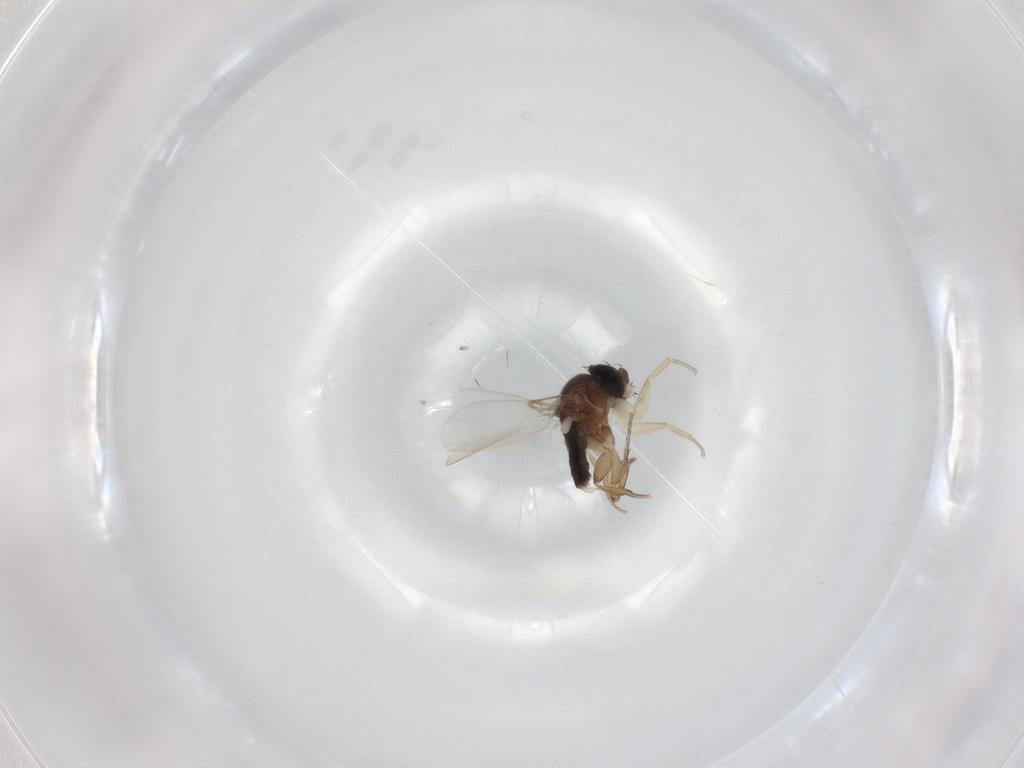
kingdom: Animalia
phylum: Arthropoda
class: Insecta
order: Diptera
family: Phoridae
